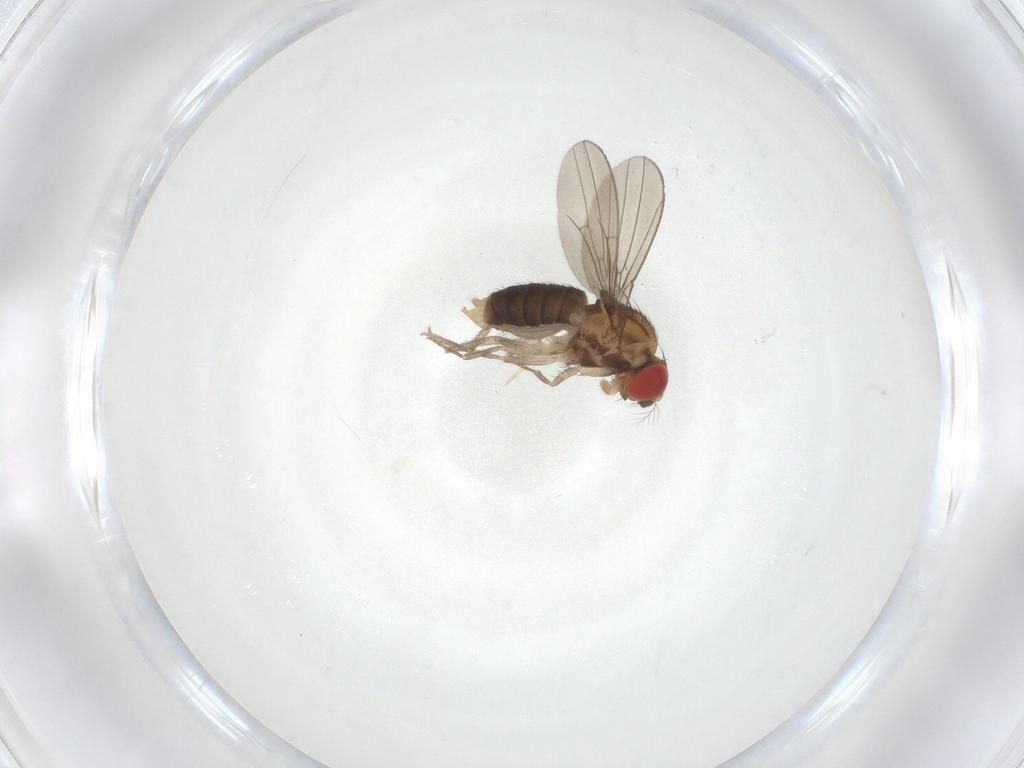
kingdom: Animalia
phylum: Arthropoda
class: Insecta
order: Diptera
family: Drosophilidae
